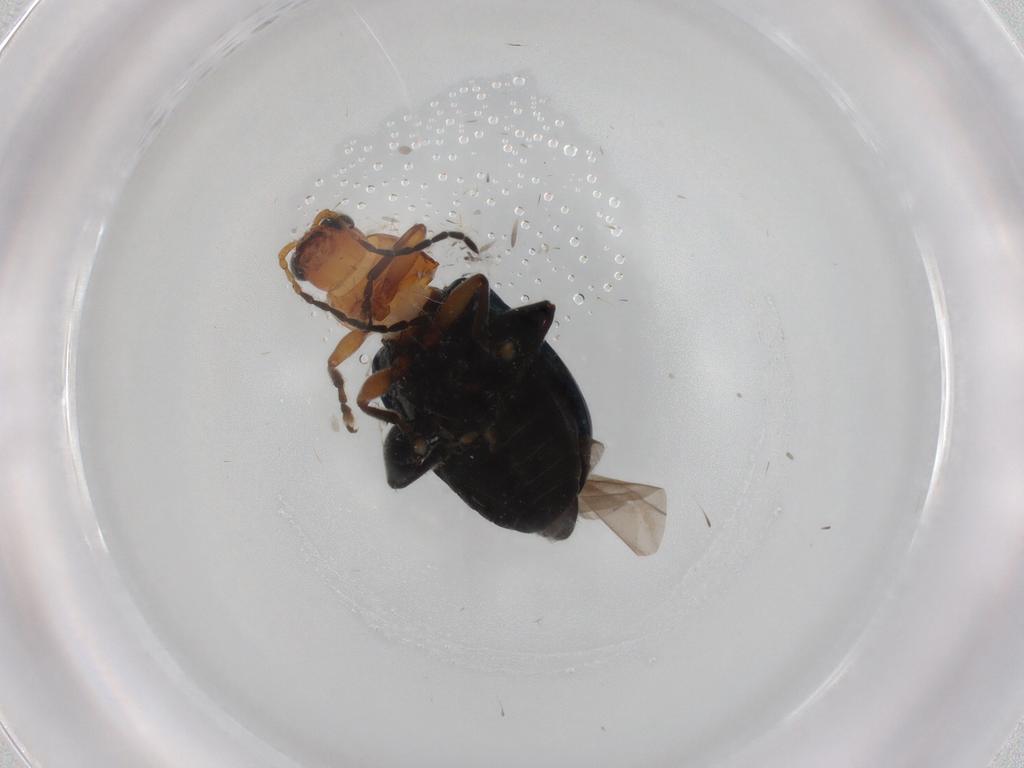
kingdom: Animalia
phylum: Arthropoda
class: Insecta
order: Coleoptera
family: Chrysomelidae
